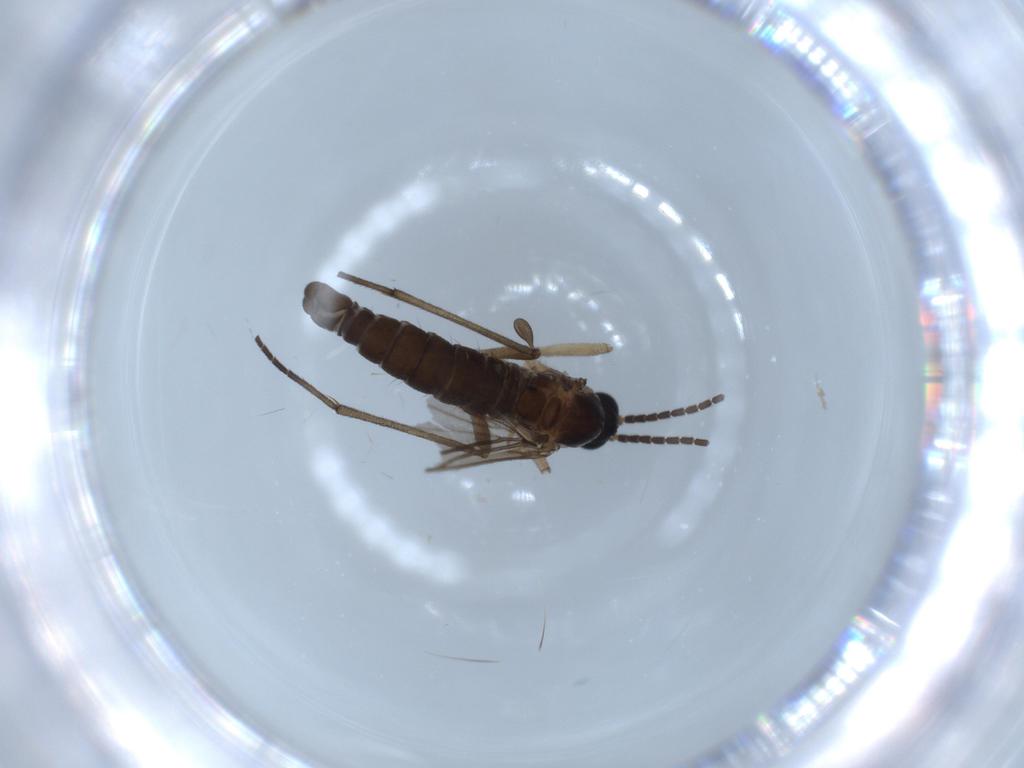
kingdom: Animalia
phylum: Arthropoda
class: Insecta
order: Diptera
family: Sciaridae
